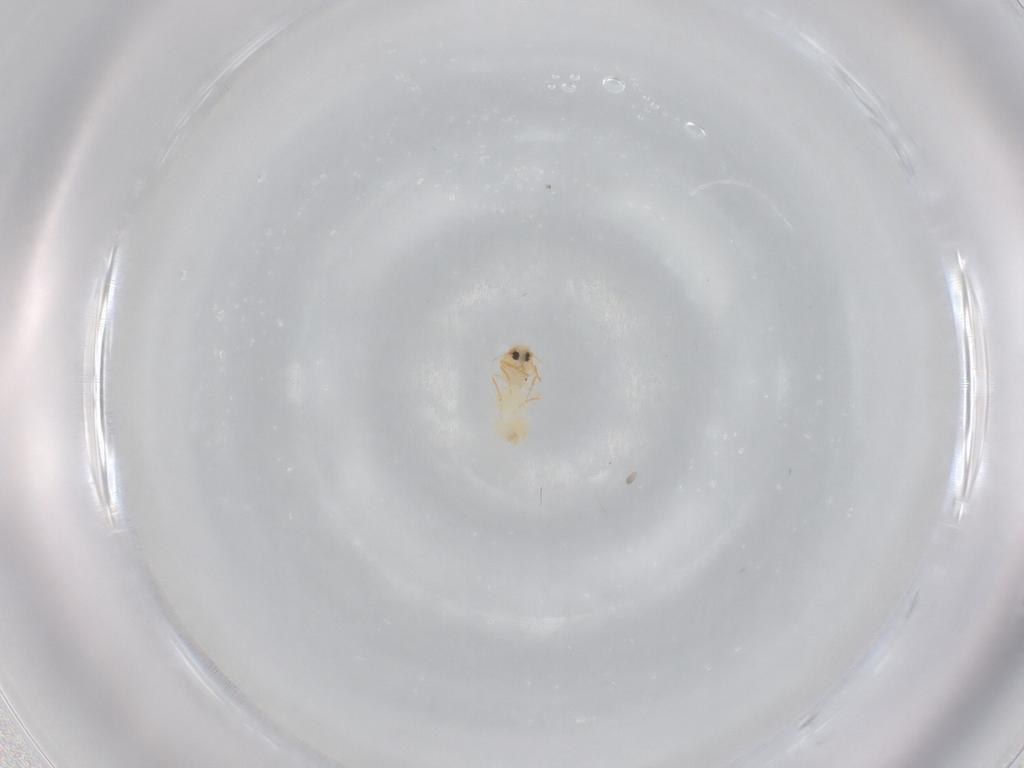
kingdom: Animalia
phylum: Arthropoda
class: Insecta
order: Hemiptera
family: Aleyrodidae
